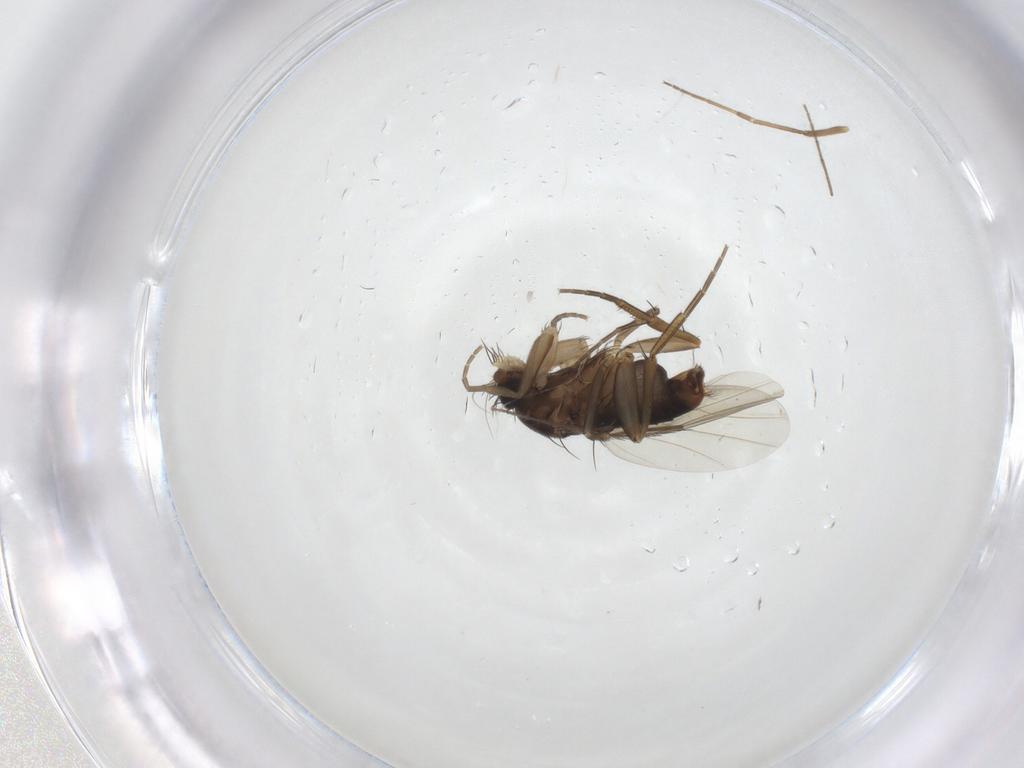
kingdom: Animalia
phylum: Arthropoda
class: Insecta
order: Diptera
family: Phoridae
